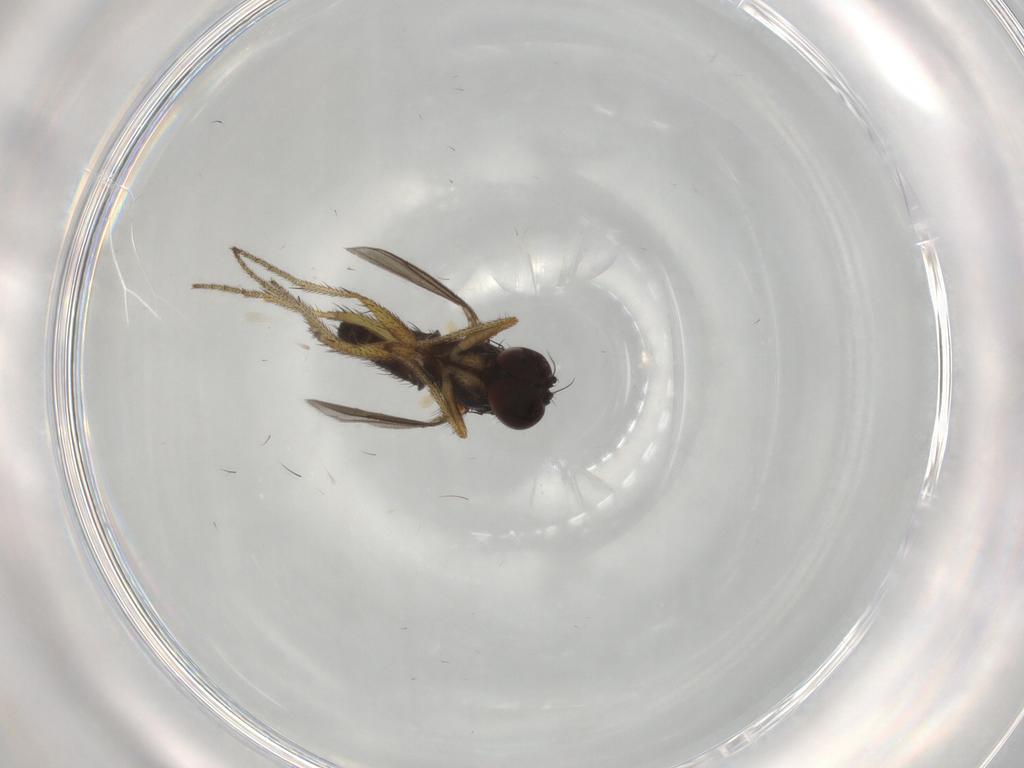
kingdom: Animalia
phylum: Arthropoda
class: Insecta
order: Diptera
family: Dolichopodidae
